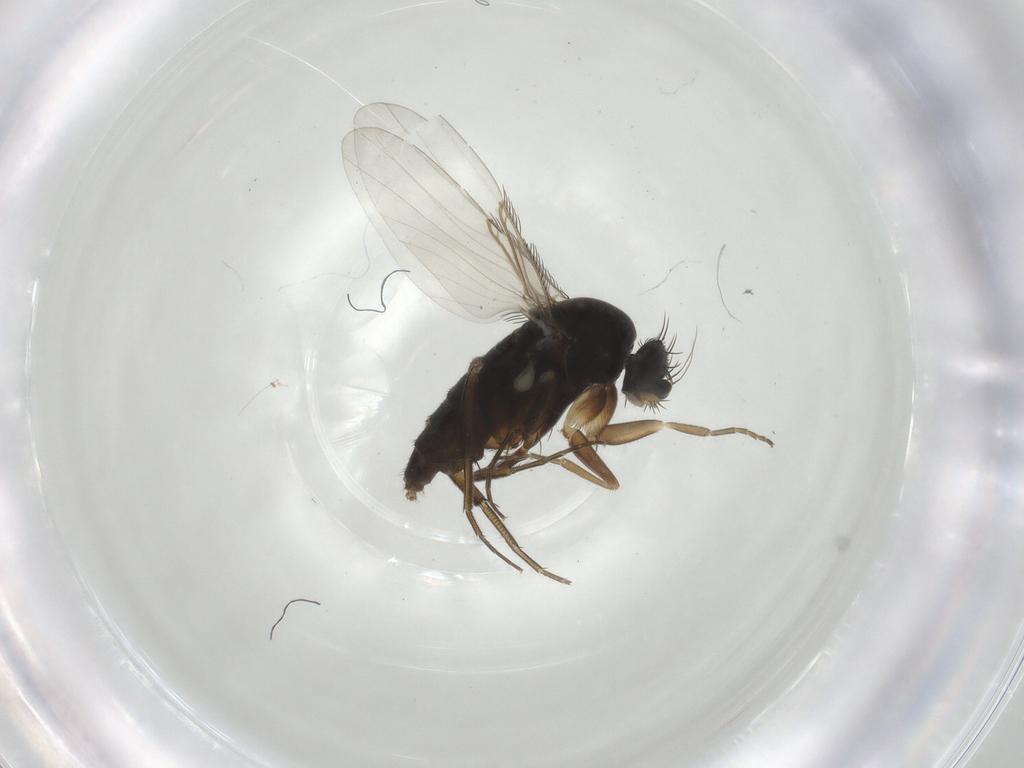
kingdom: Animalia
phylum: Arthropoda
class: Insecta
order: Diptera
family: Phoridae
